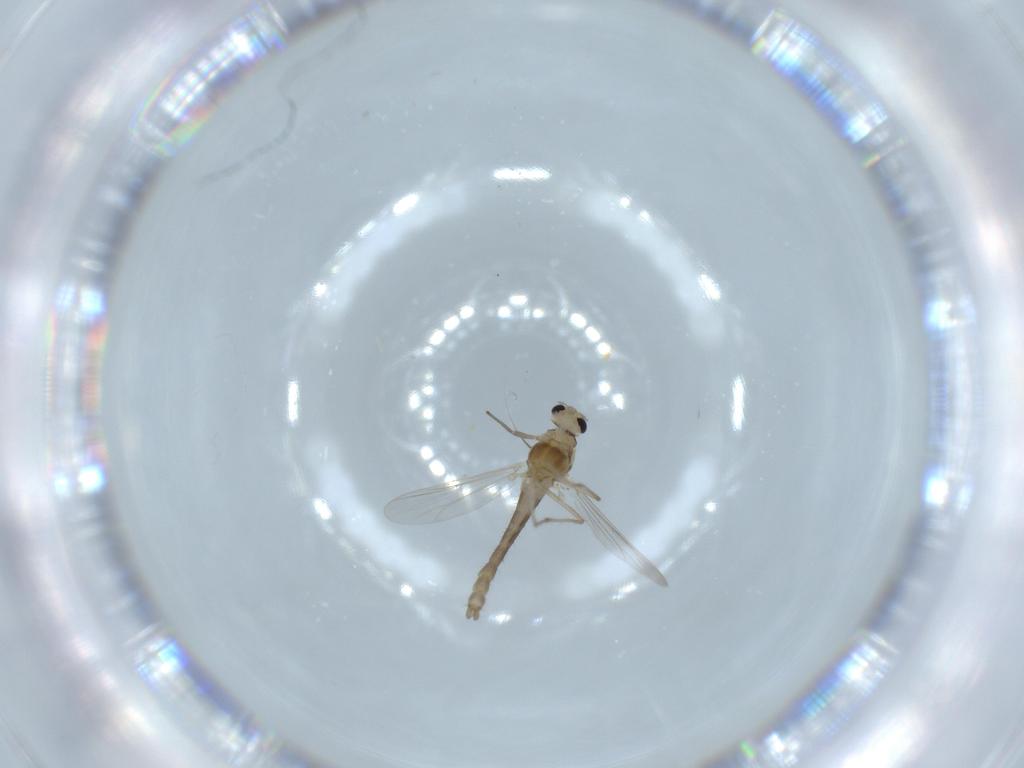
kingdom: Animalia
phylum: Arthropoda
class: Insecta
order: Diptera
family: Chironomidae
